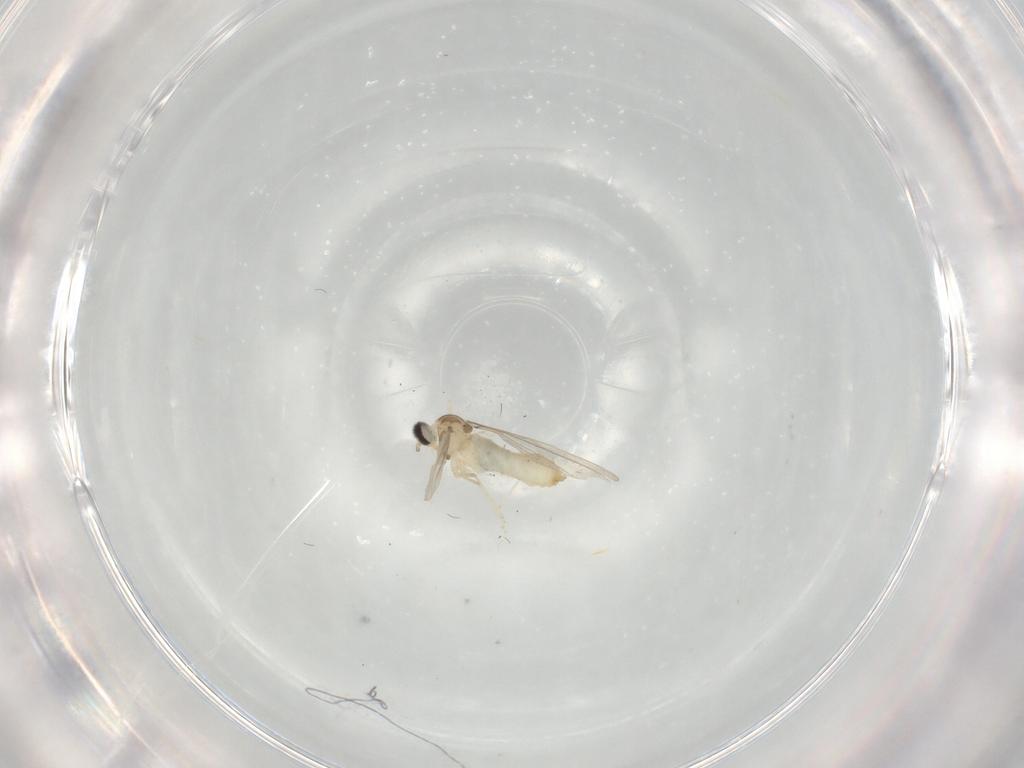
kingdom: Animalia
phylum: Arthropoda
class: Insecta
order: Diptera
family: Cecidomyiidae
